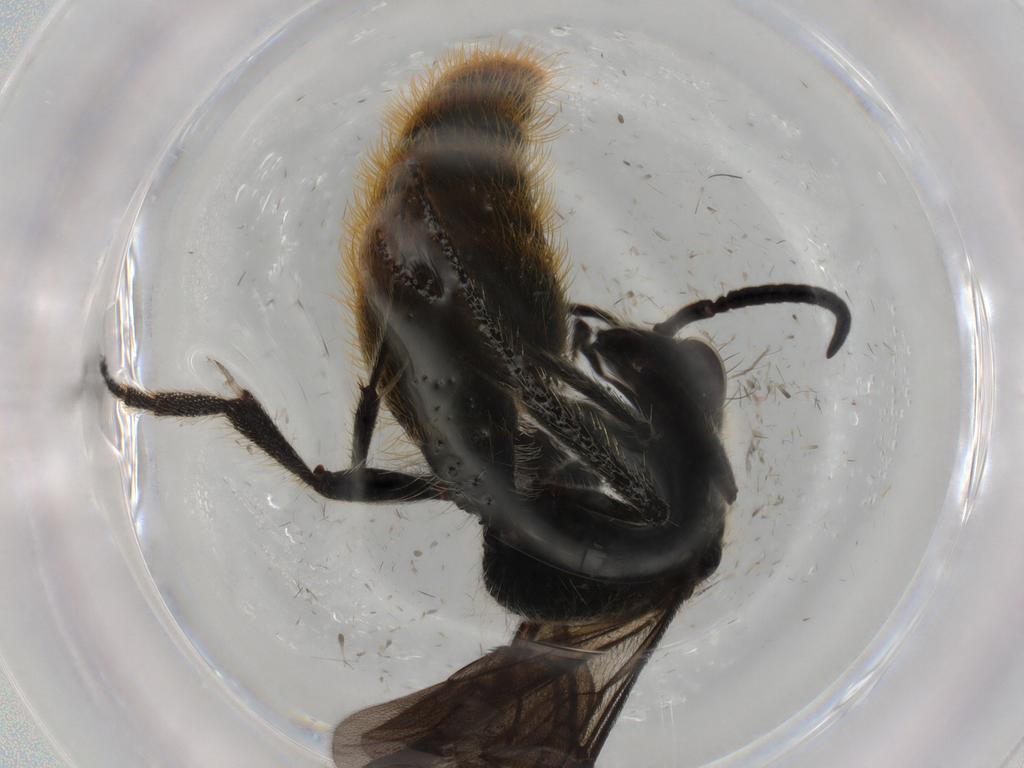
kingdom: Animalia
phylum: Arthropoda
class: Insecta
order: Hymenoptera
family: Mutillidae
